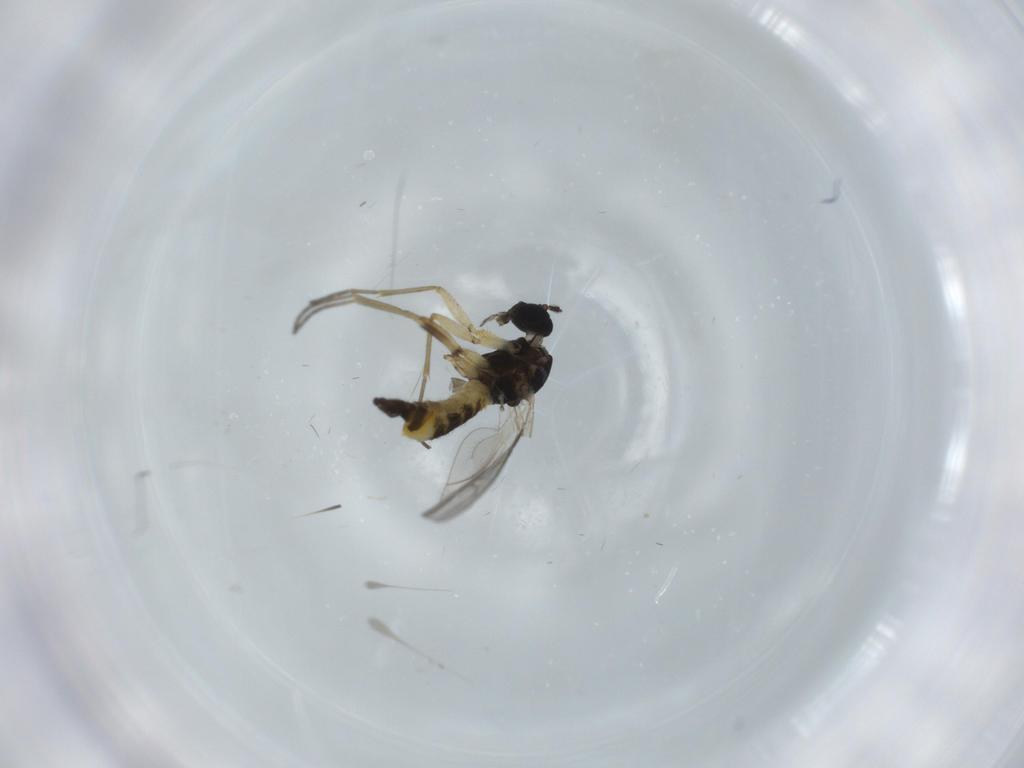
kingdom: Animalia
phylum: Arthropoda
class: Insecta
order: Diptera
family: Sciaridae
